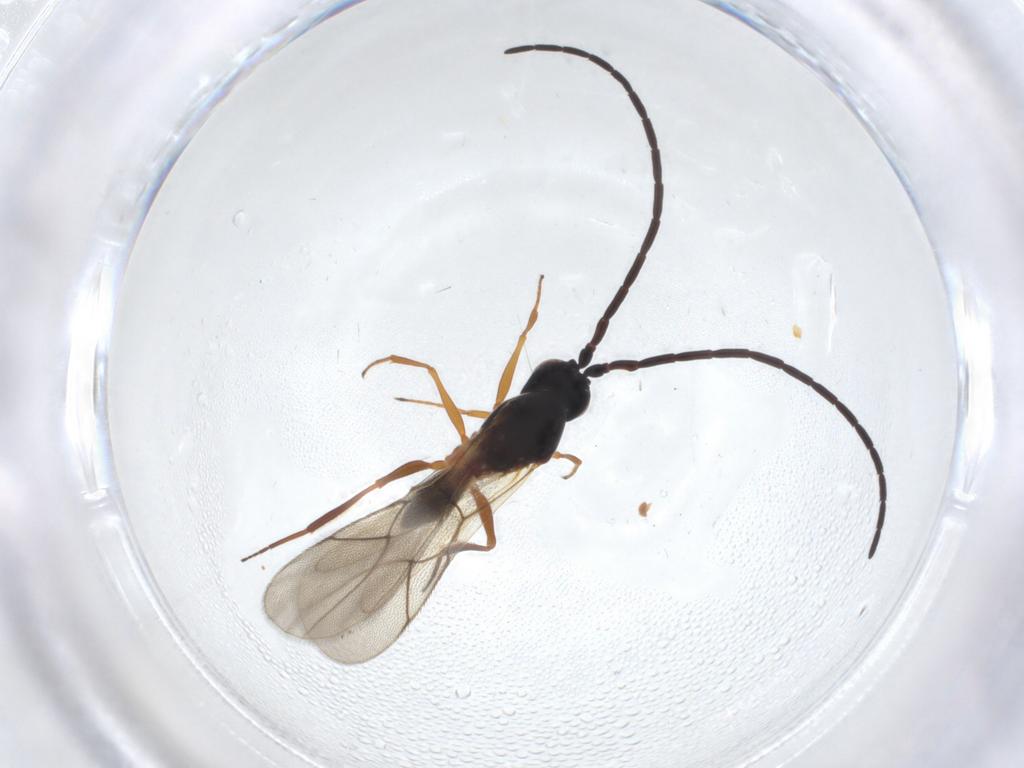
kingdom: Animalia
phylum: Arthropoda
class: Insecta
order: Hymenoptera
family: Figitidae
